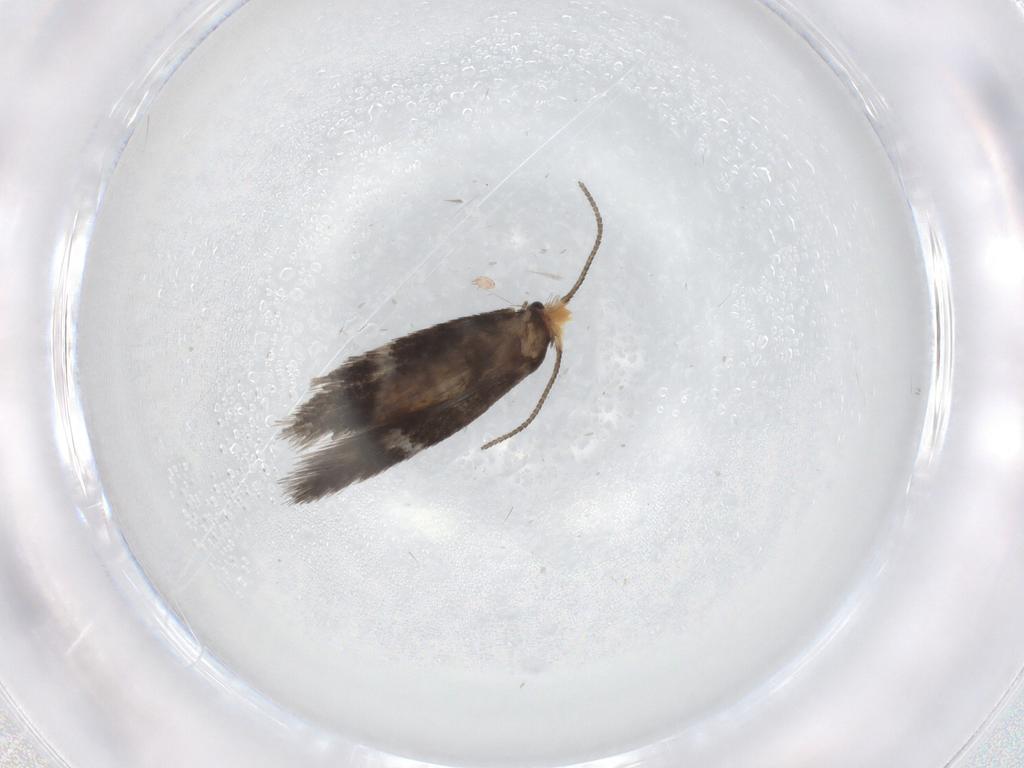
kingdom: Animalia
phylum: Arthropoda
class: Insecta
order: Lepidoptera
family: Nepticulidae
